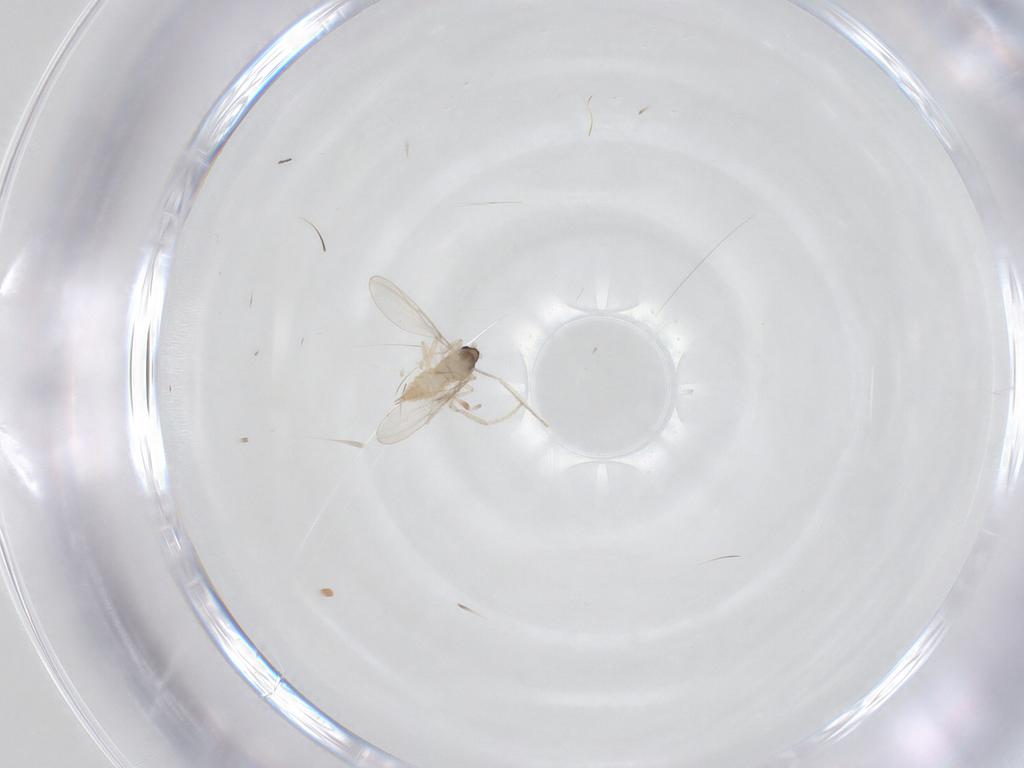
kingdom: Animalia
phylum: Arthropoda
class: Insecta
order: Diptera
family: Cecidomyiidae
